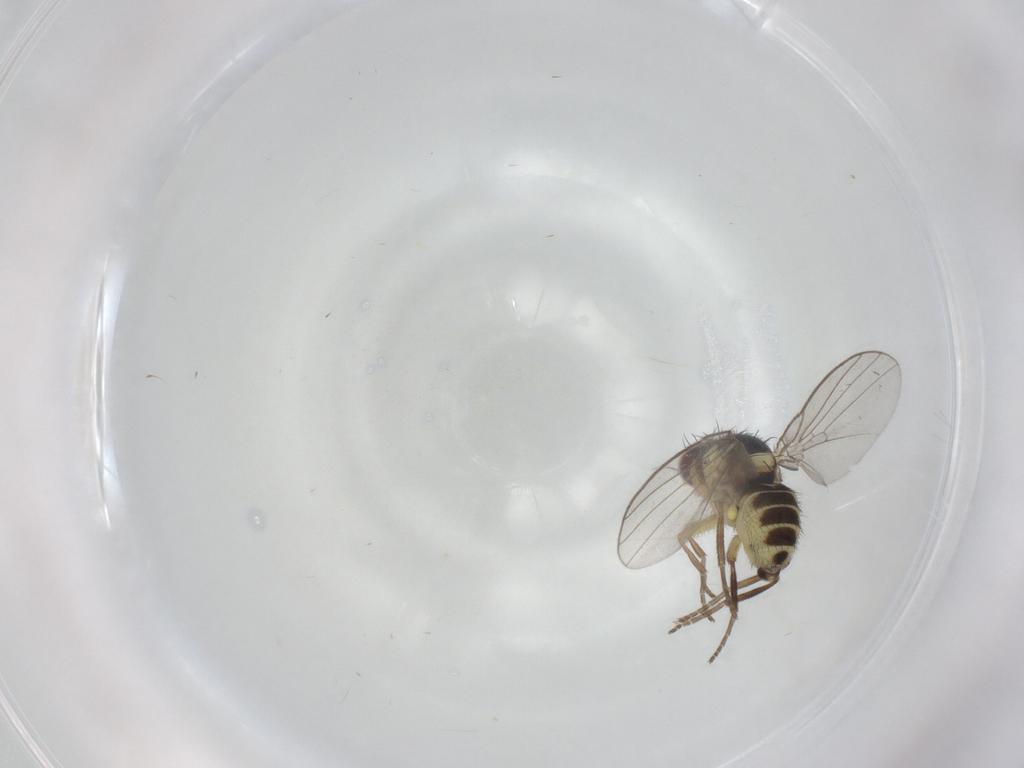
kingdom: Animalia
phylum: Arthropoda
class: Insecta
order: Diptera
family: Agromyzidae
